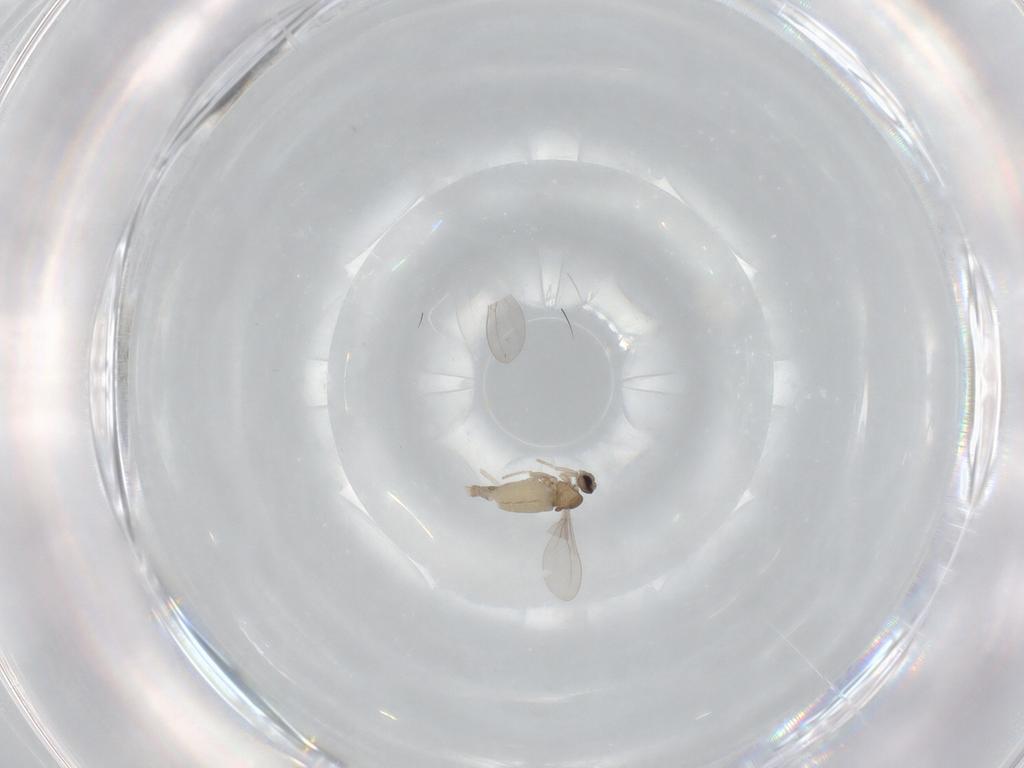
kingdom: Animalia
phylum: Arthropoda
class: Insecta
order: Diptera
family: Cecidomyiidae
